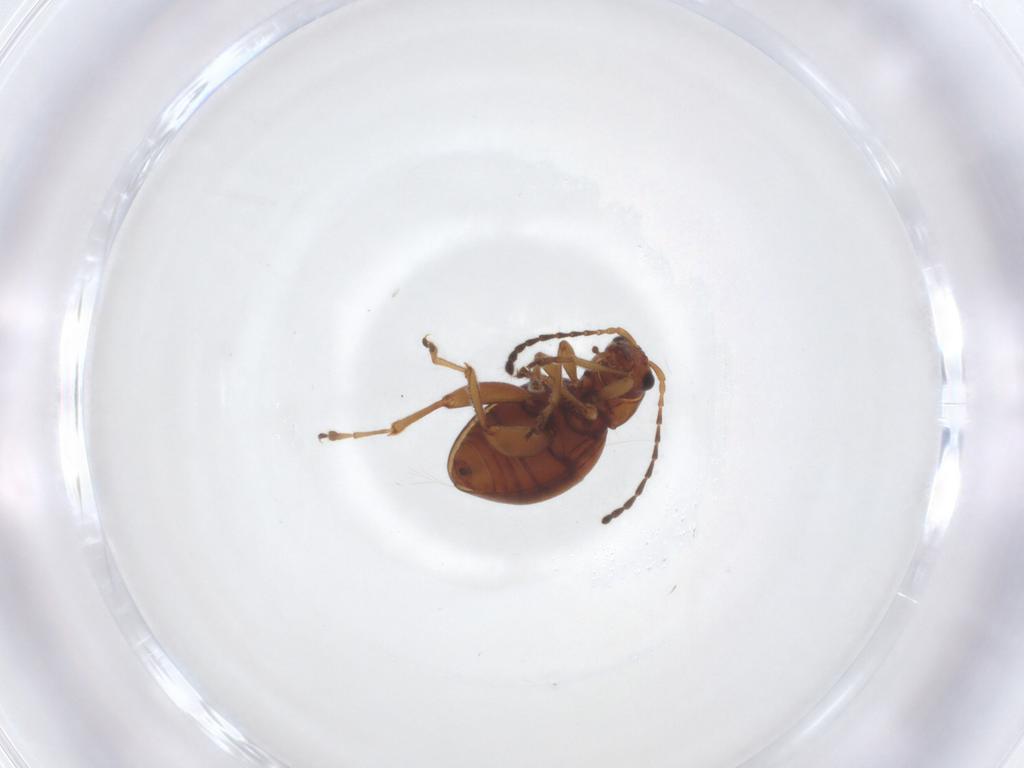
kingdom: Animalia
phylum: Arthropoda
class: Insecta
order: Coleoptera
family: Chrysomelidae
